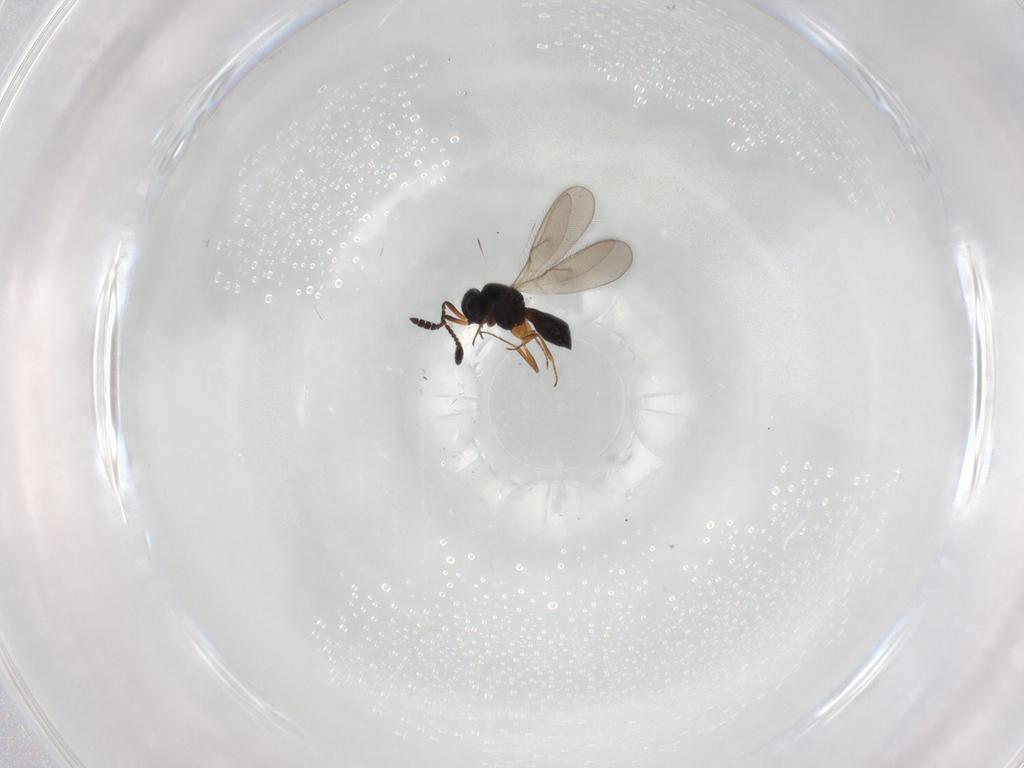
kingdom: Animalia
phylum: Arthropoda
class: Insecta
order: Hymenoptera
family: Scelionidae
